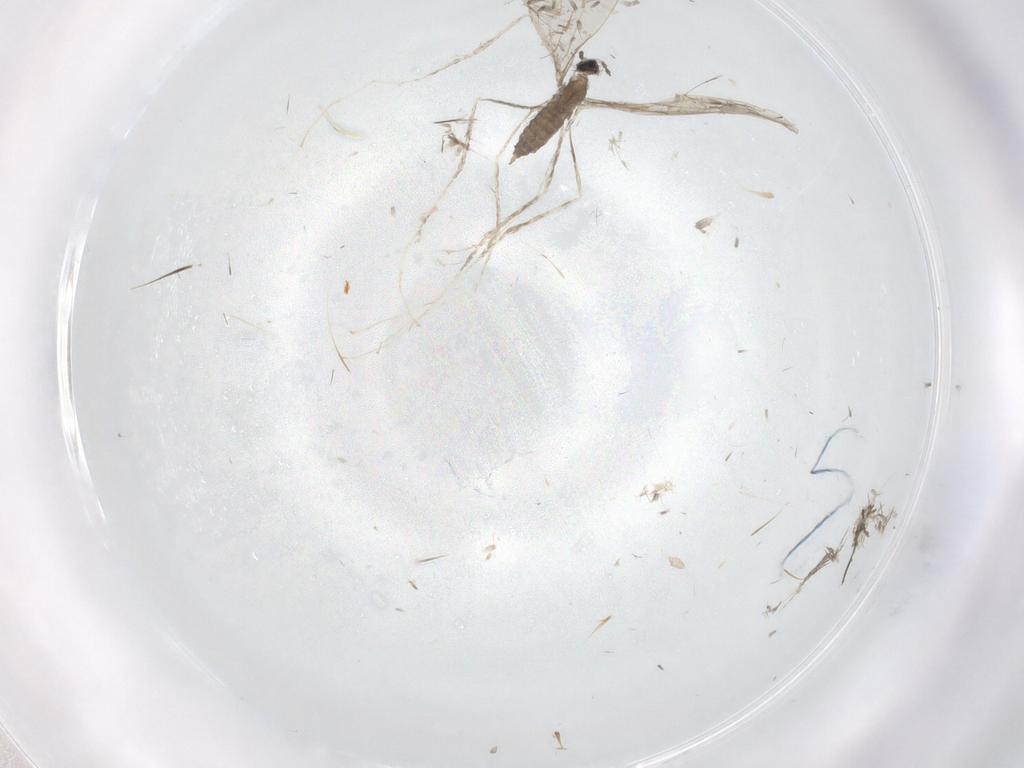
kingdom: Animalia
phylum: Arthropoda
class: Insecta
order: Diptera
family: Cecidomyiidae
